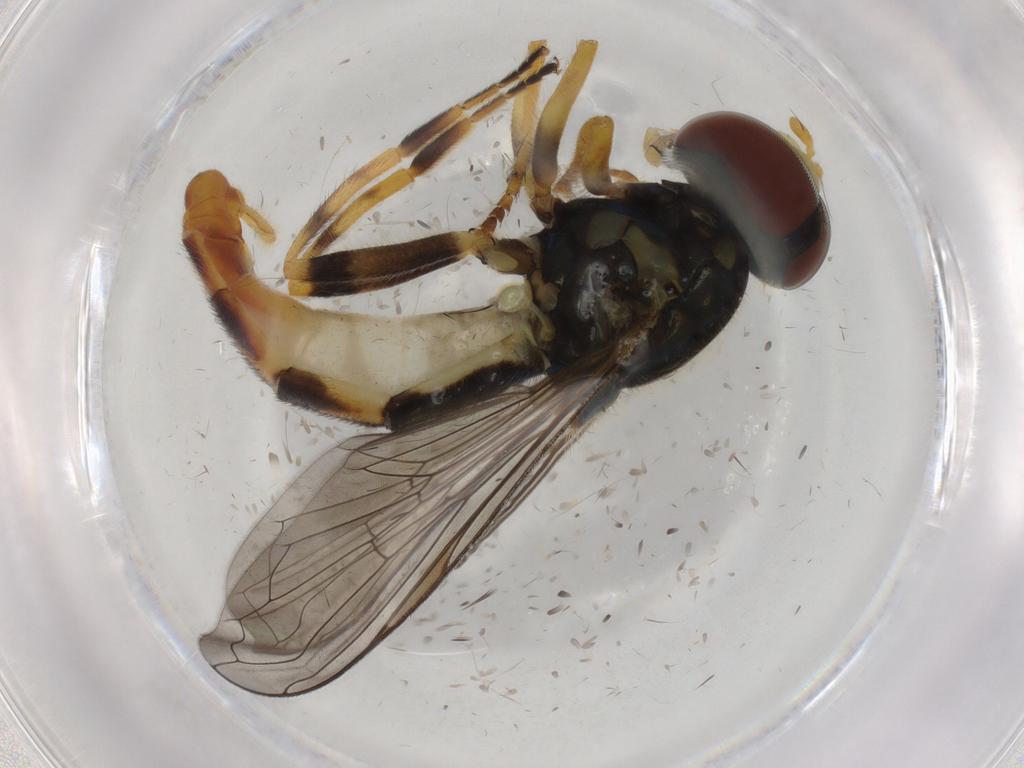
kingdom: Animalia
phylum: Arthropoda
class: Insecta
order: Diptera
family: Syrphidae
